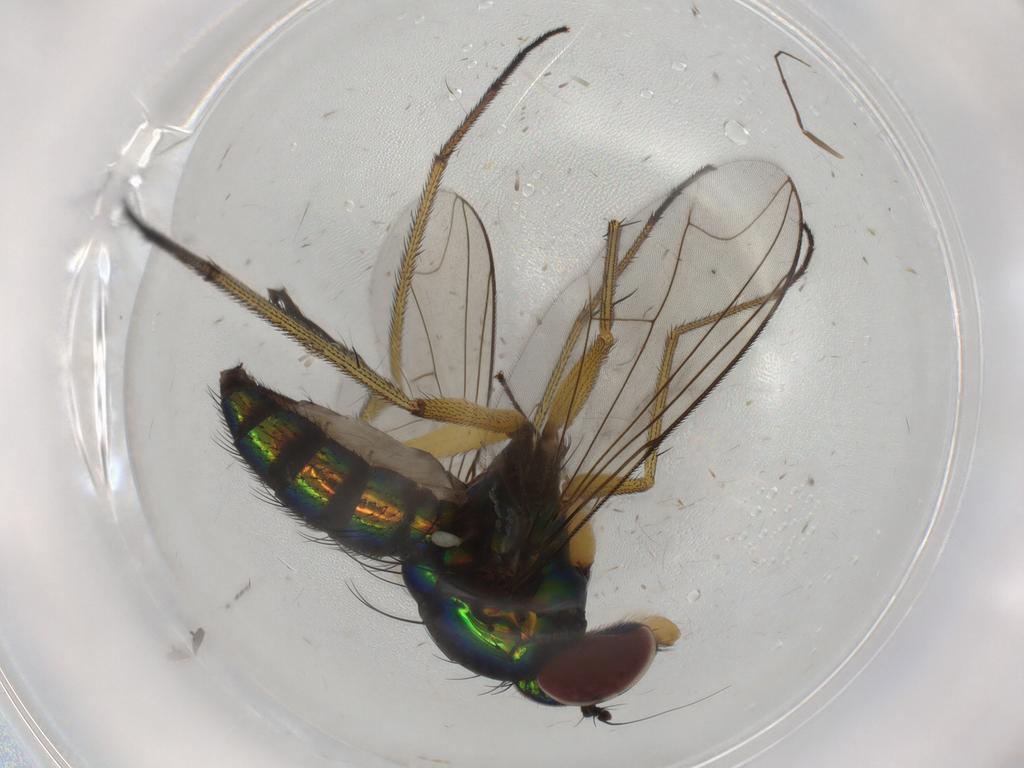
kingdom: Animalia
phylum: Arthropoda
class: Insecta
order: Diptera
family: Dolichopodidae
